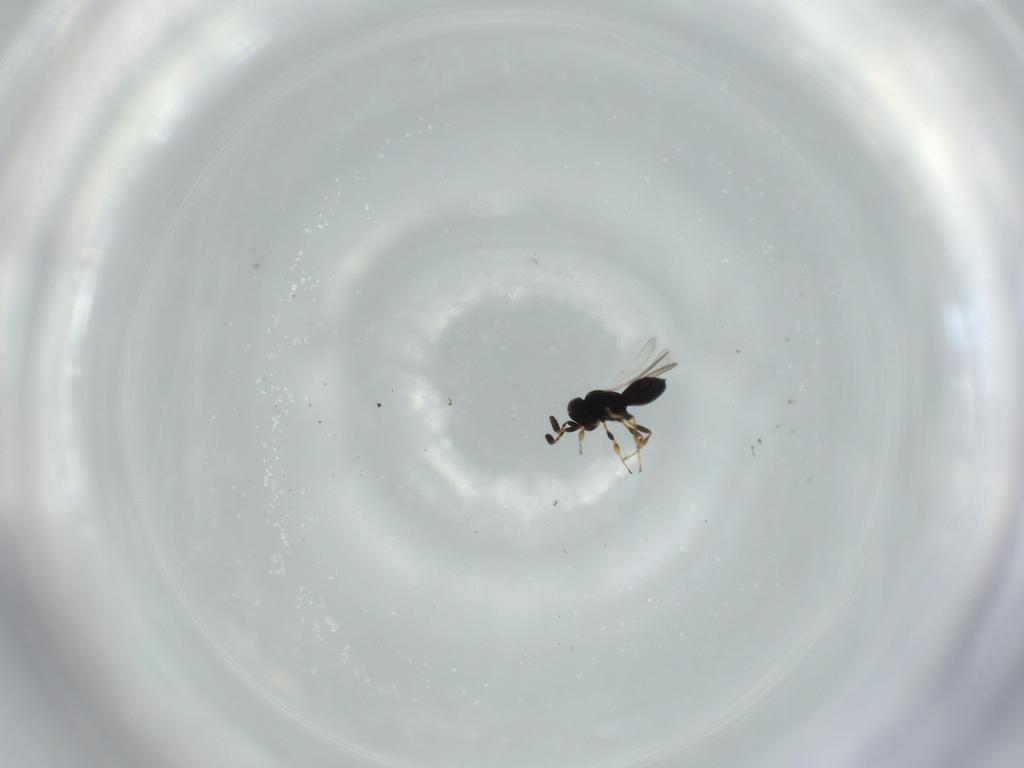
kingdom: Animalia
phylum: Arthropoda
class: Insecta
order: Hymenoptera
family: Scelionidae
